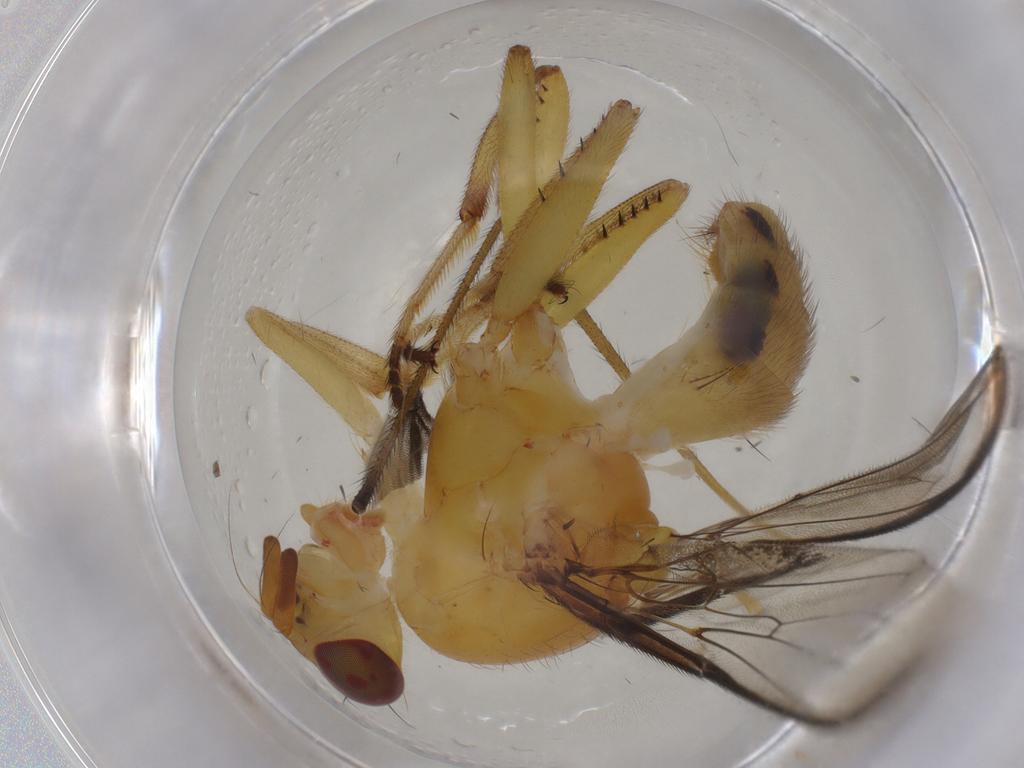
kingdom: Animalia
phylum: Arthropoda
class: Insecta
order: Diptera
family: Richardiidae
